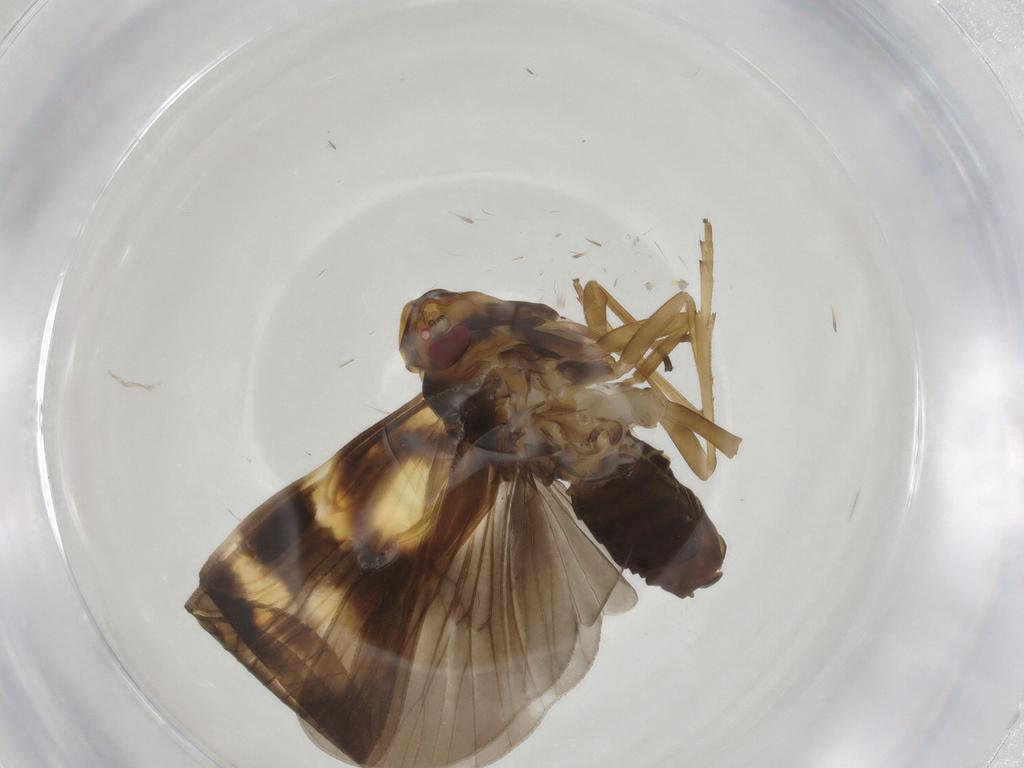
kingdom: Animalia
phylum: Arthropoda
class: Insecta
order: Hemiptera
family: Cixiidae
